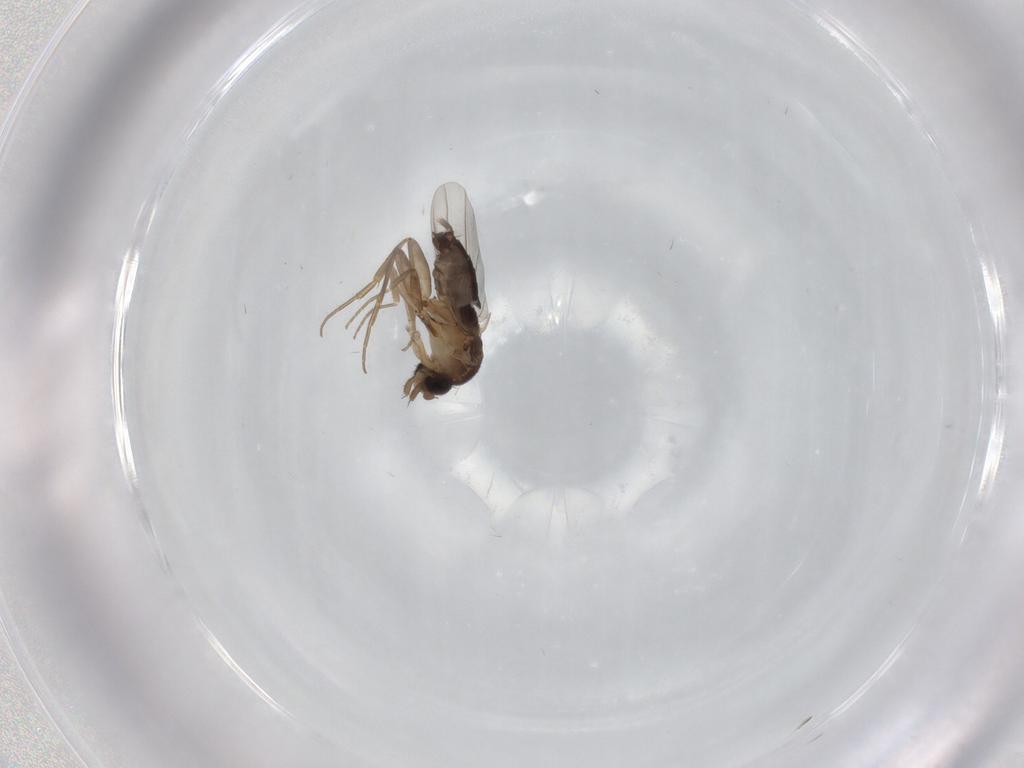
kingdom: Animalia
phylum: Arthropoda
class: Insecta
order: Diptera
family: Phoridae
